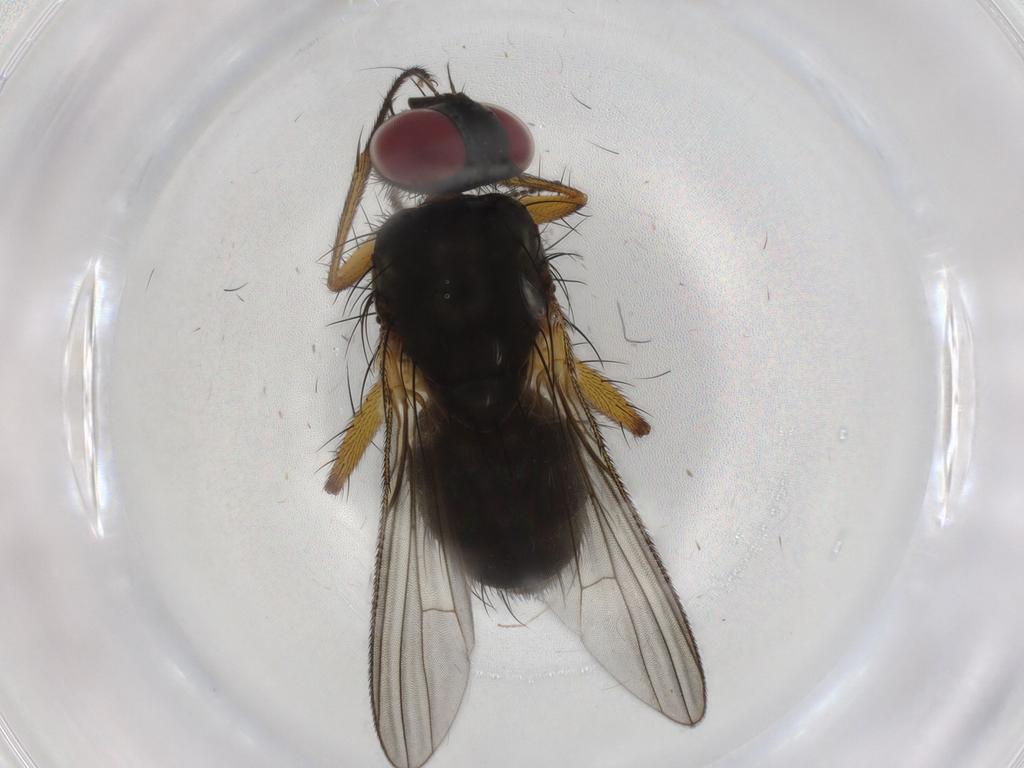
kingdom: Animalia
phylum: Arthropoda
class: Insecta
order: Diptera
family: Muscidae
